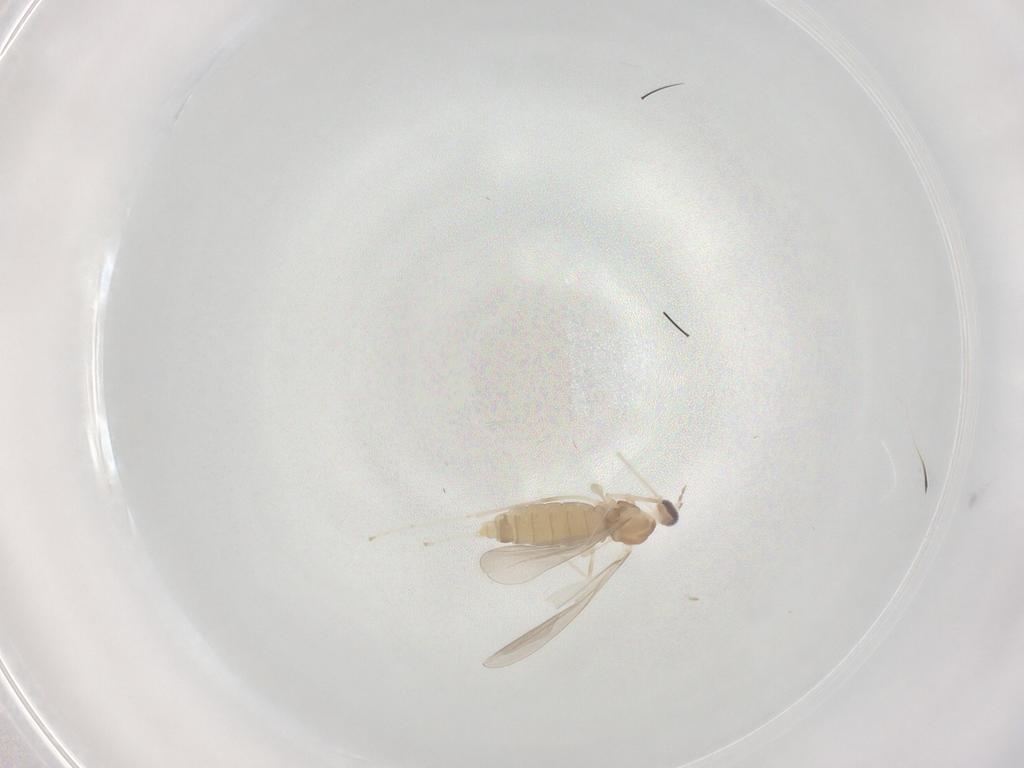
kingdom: Animalia
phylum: Arthropoda
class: Insecta
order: Diptera
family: Cecidomyiidae
